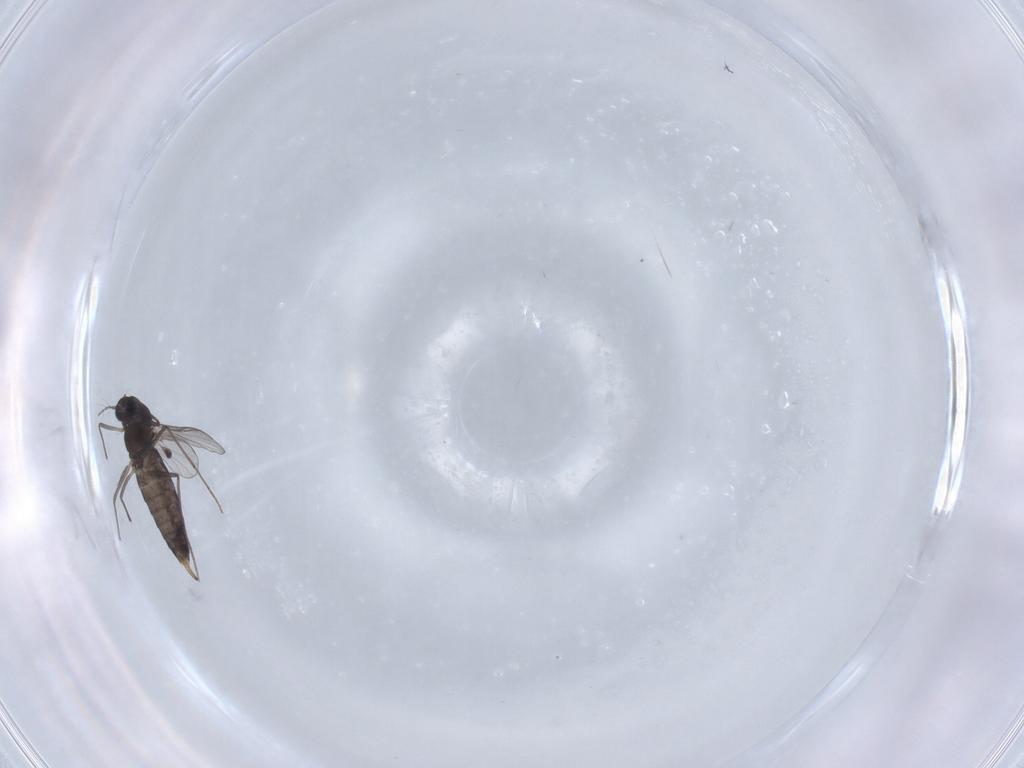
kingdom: Animalia
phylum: Arthropoda
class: Insecta
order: Diptera
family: Chironomidae
